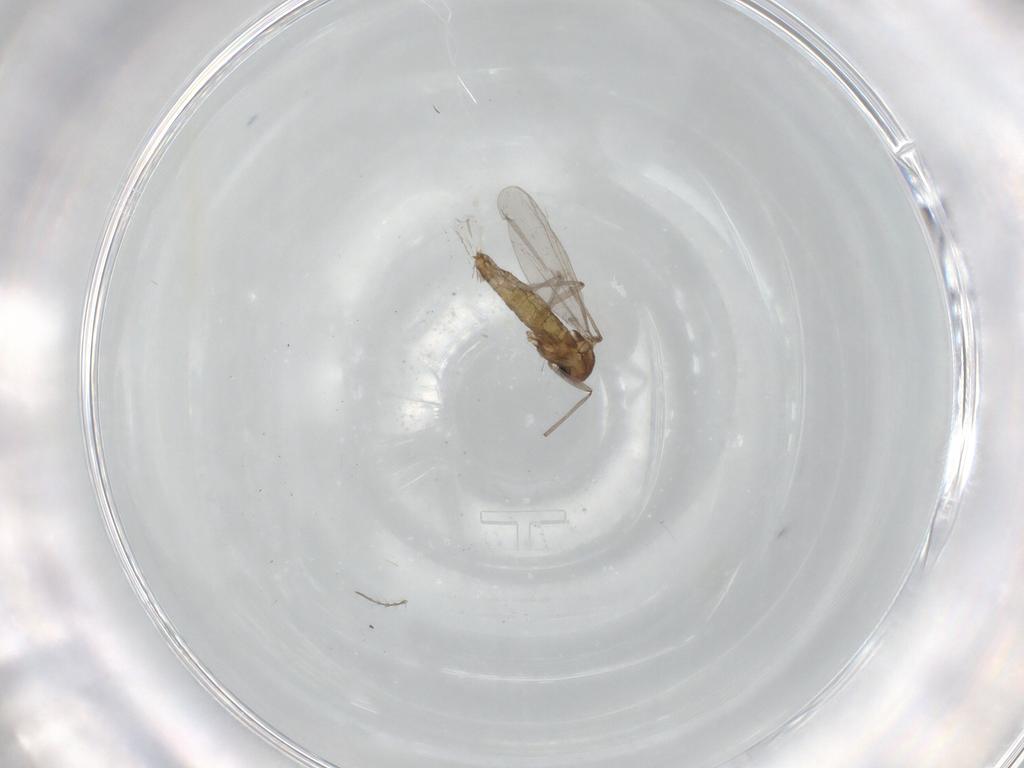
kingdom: Animalia
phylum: Arthropoda
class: Insecta
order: Diptera
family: Chironomidae
